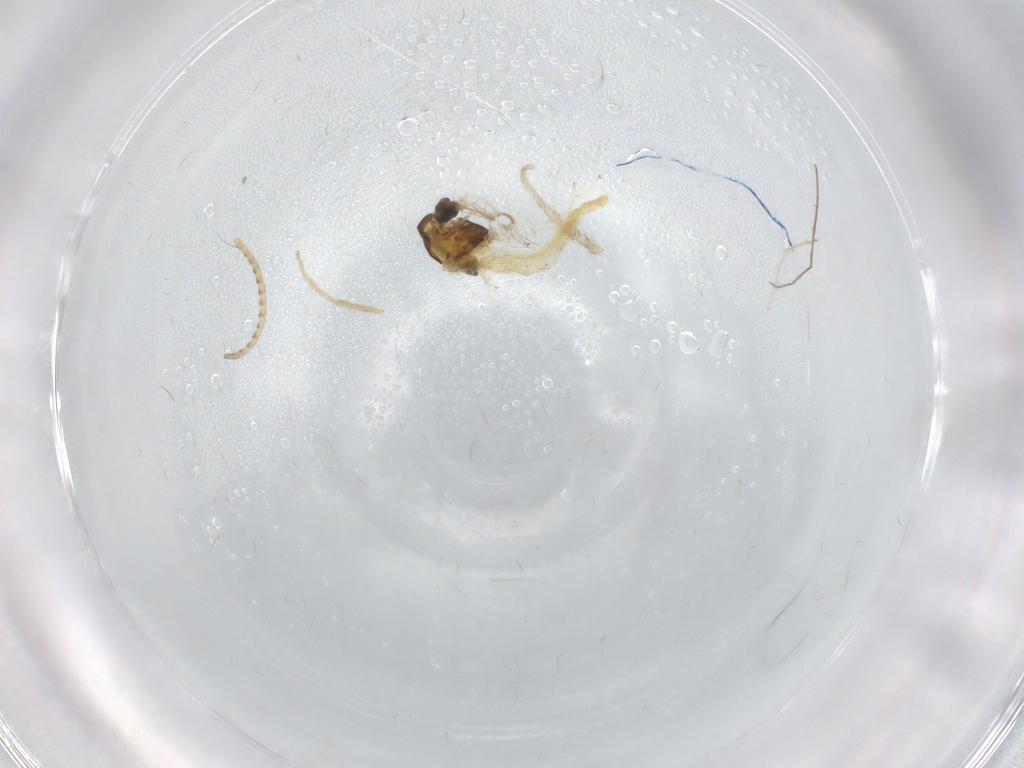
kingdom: Animalia
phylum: Arthropoda
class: Insecta
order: Diptera
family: Chironomidae
